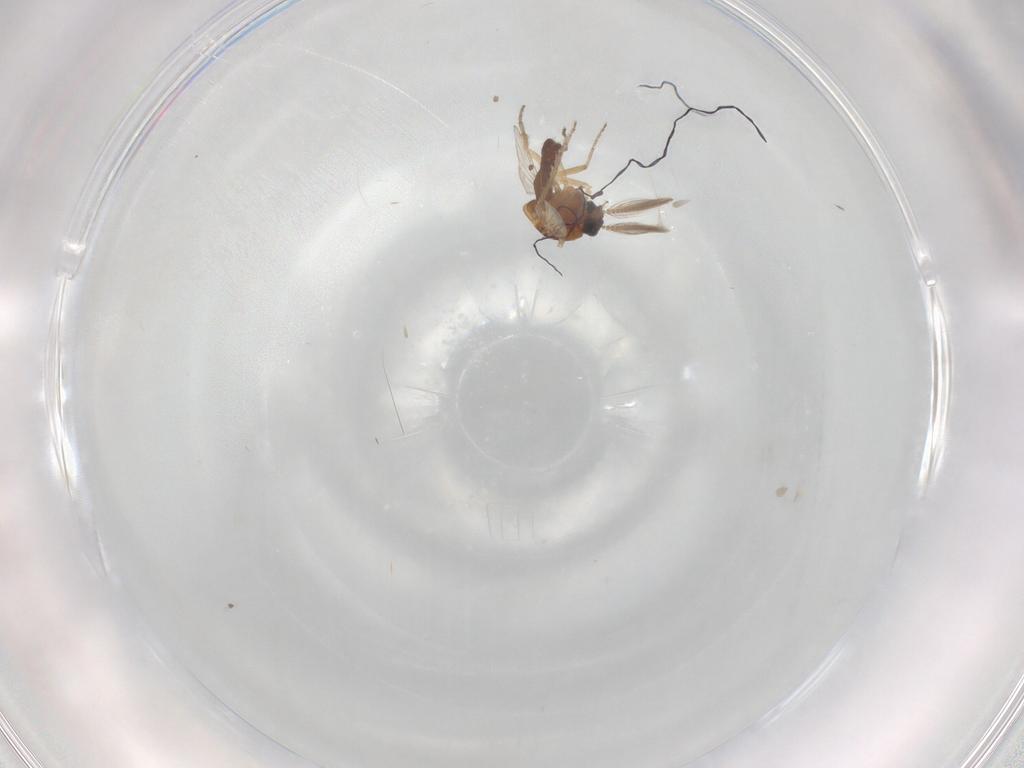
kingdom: Animalia
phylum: Arthropoda
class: Insecta
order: Diptera
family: Ceratopogonidae
